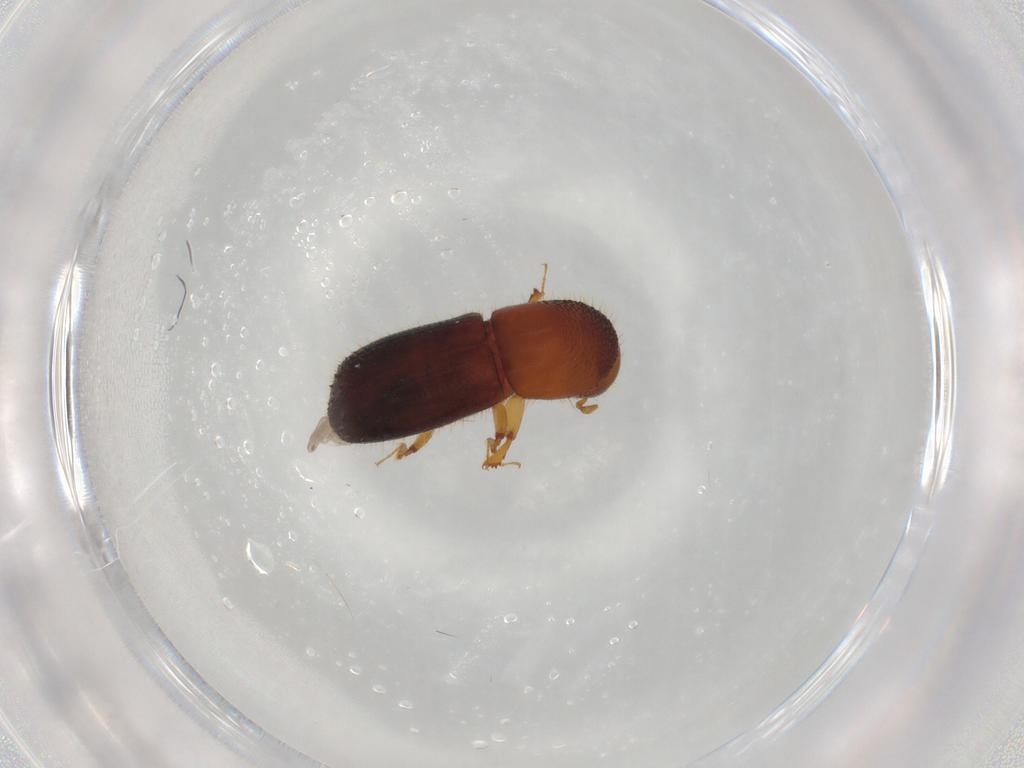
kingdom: Animalia
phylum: Arthropoda
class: Insecta
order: Coleoptera
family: Curculionidae
